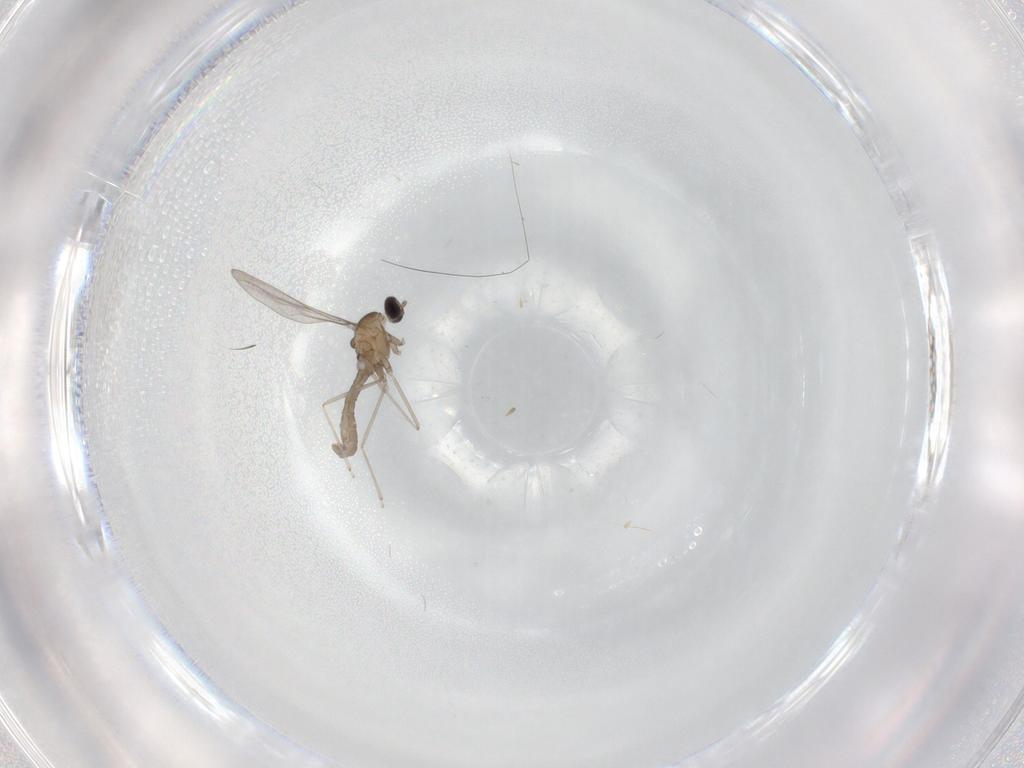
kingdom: Animalia
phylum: Arthropoda
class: Insecta
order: Diptera
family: Cecidomyiidae
